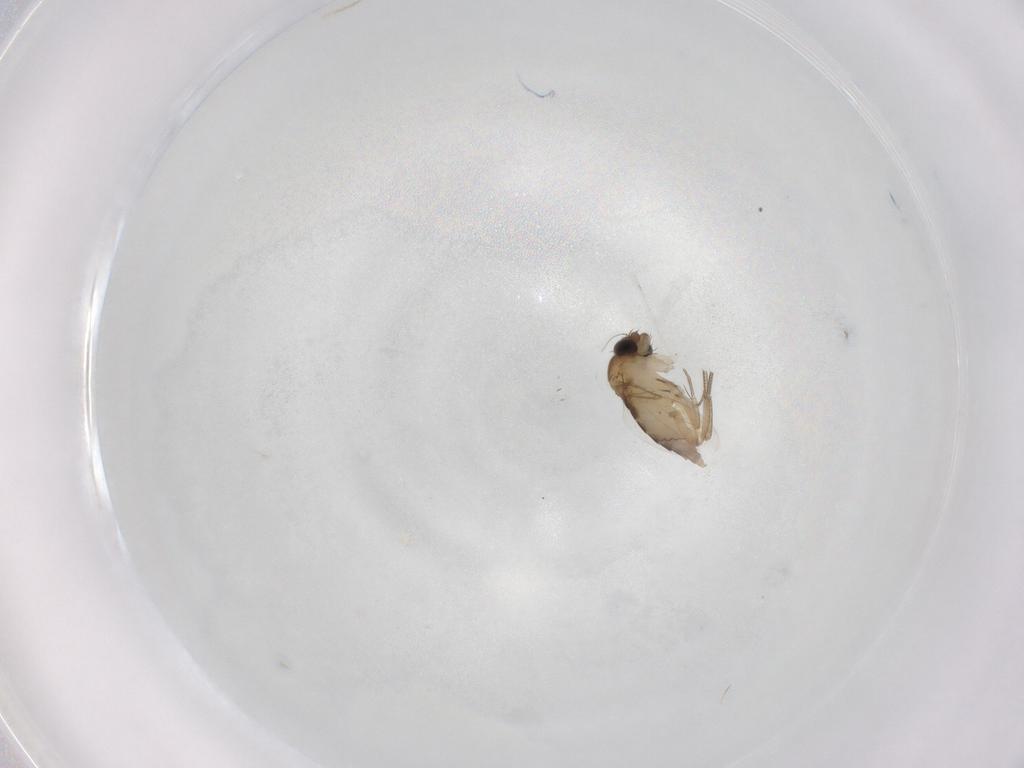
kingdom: Animalia
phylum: Arthropoda
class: Insecta
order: Diptera
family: Phoridae
